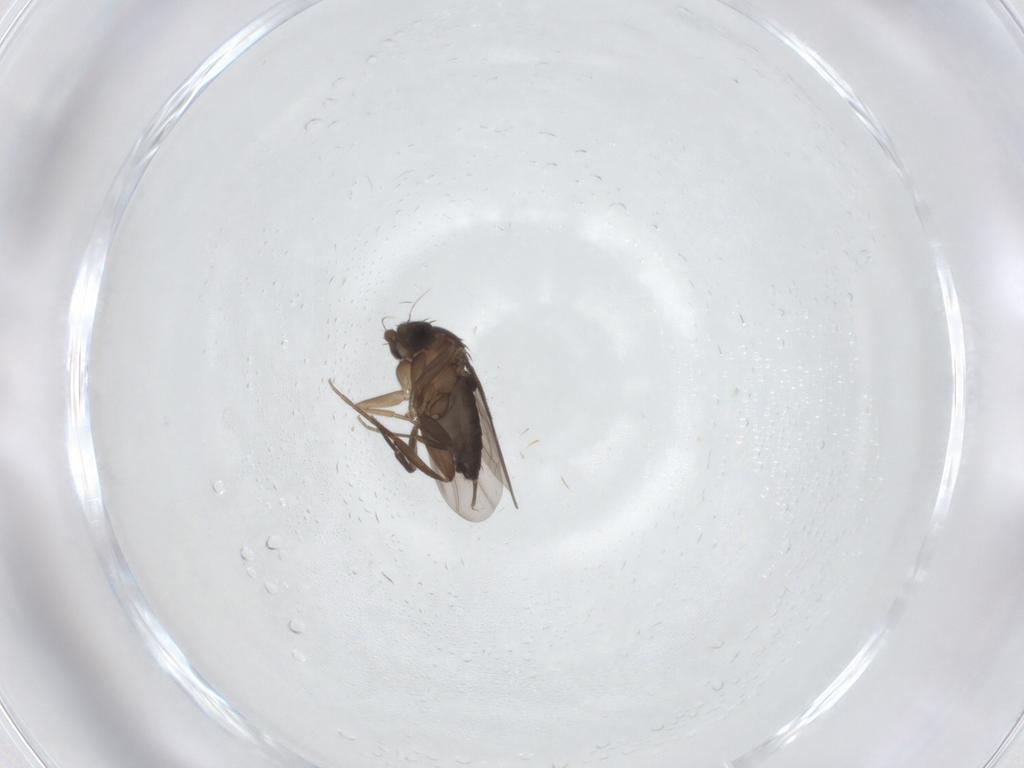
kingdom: Animalia
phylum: Arthropoda
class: Insecta
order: Diptera
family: Phoridae
